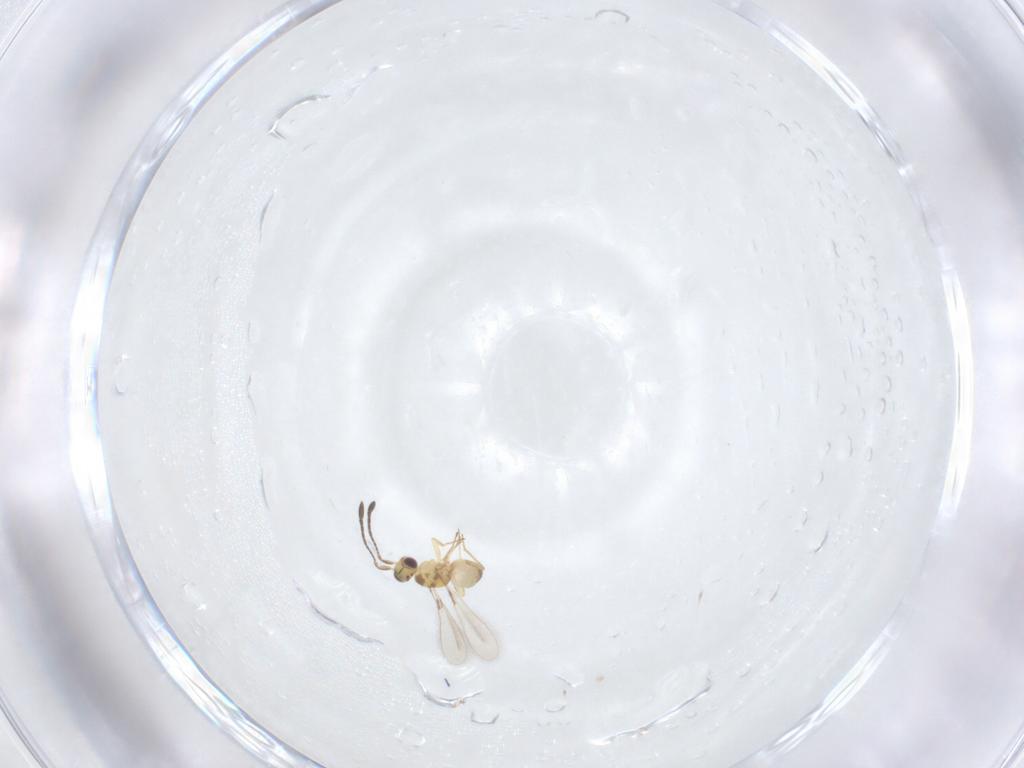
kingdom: Animalia
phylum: Arthropoda
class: Insecta
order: Hymenoptera
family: Mymaridae
